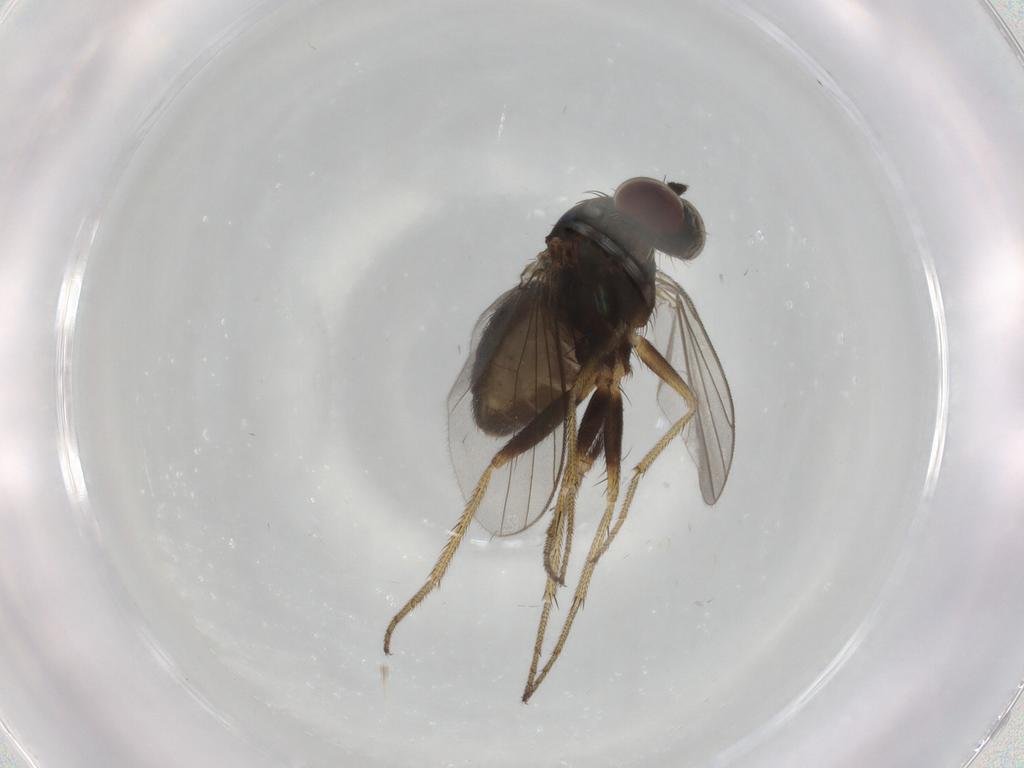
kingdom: Animalia
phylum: Arthropoda
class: Insecta
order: Diptera
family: Dolichopodidae
